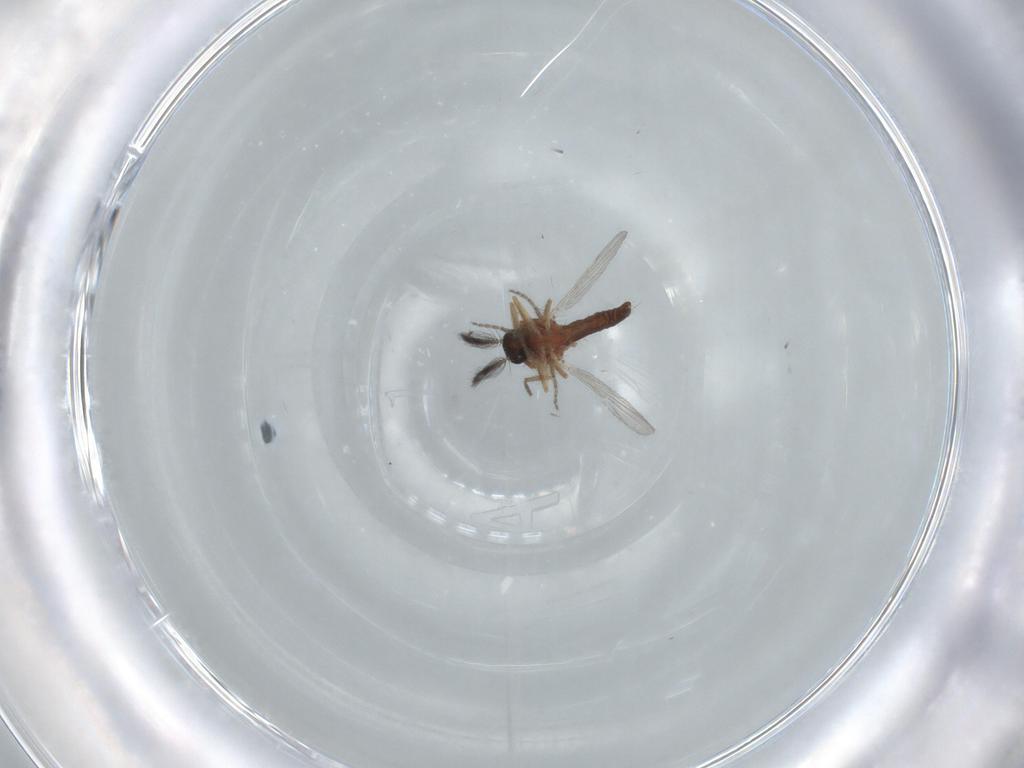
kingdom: Animalia
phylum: Arthropoda
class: Insecta
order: Diptera
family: Ceratopogonidae
